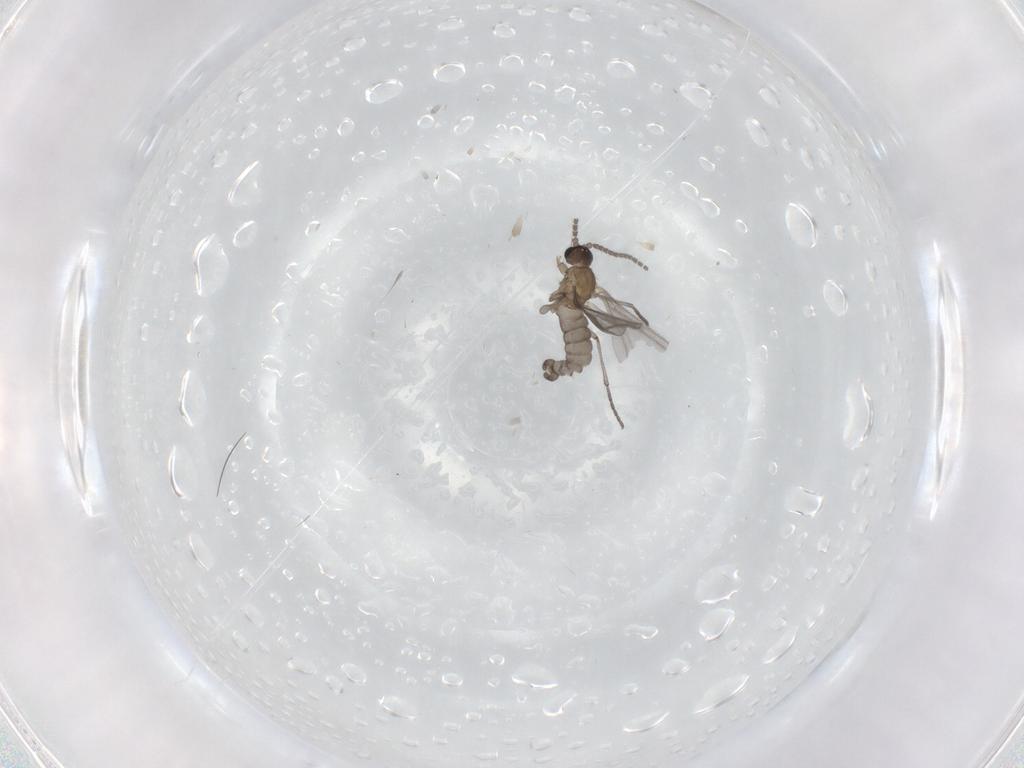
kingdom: Animalia
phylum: Arthropoda
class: Insecta
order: Diptera
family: Sciaridae
